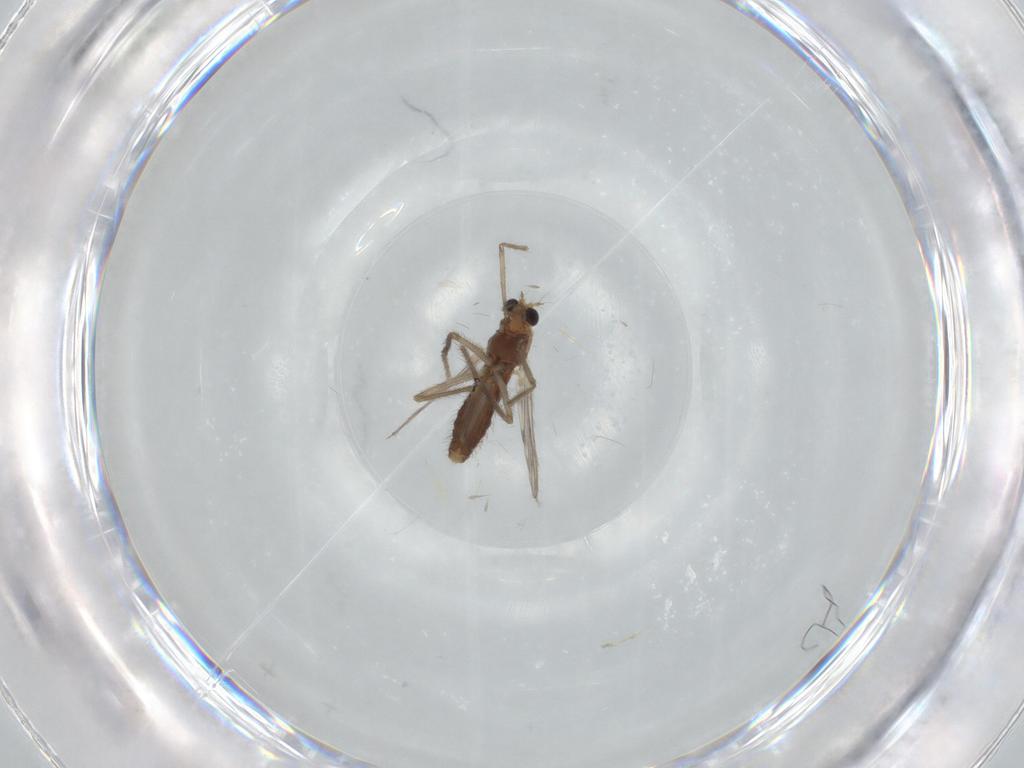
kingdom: Animalia
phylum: Arthropoda
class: Insecta
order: Diptera
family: Chironomidae
